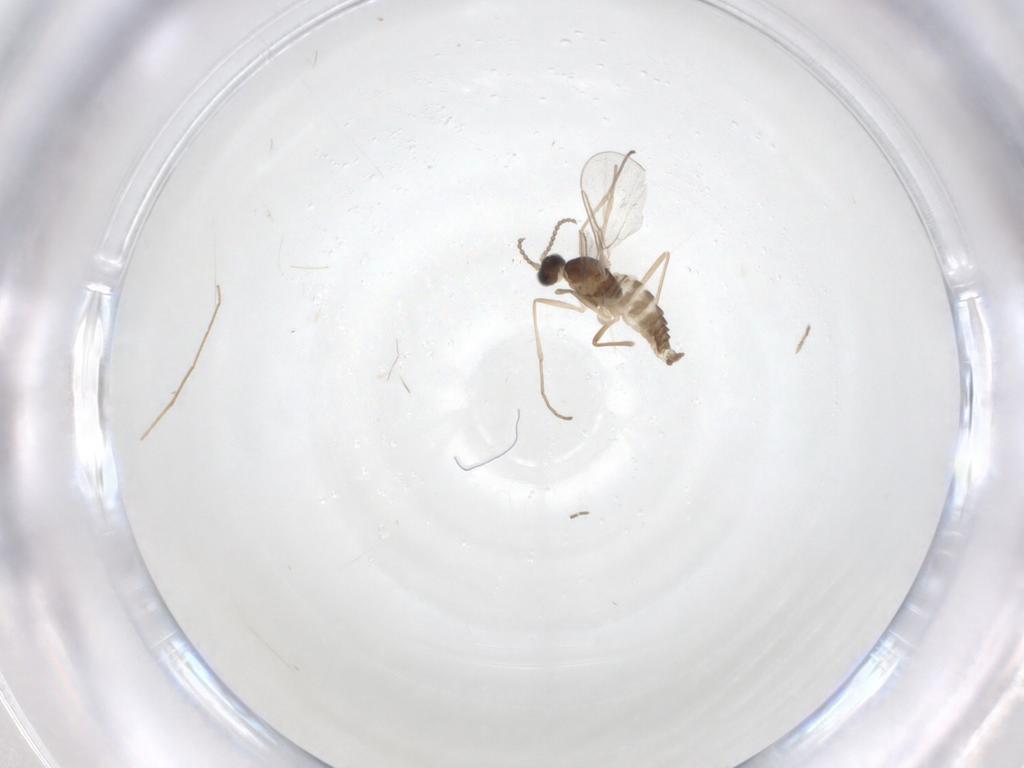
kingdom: Animalia
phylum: Arthropoda
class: Insecta
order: Diptera
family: Cecidomyiidae
